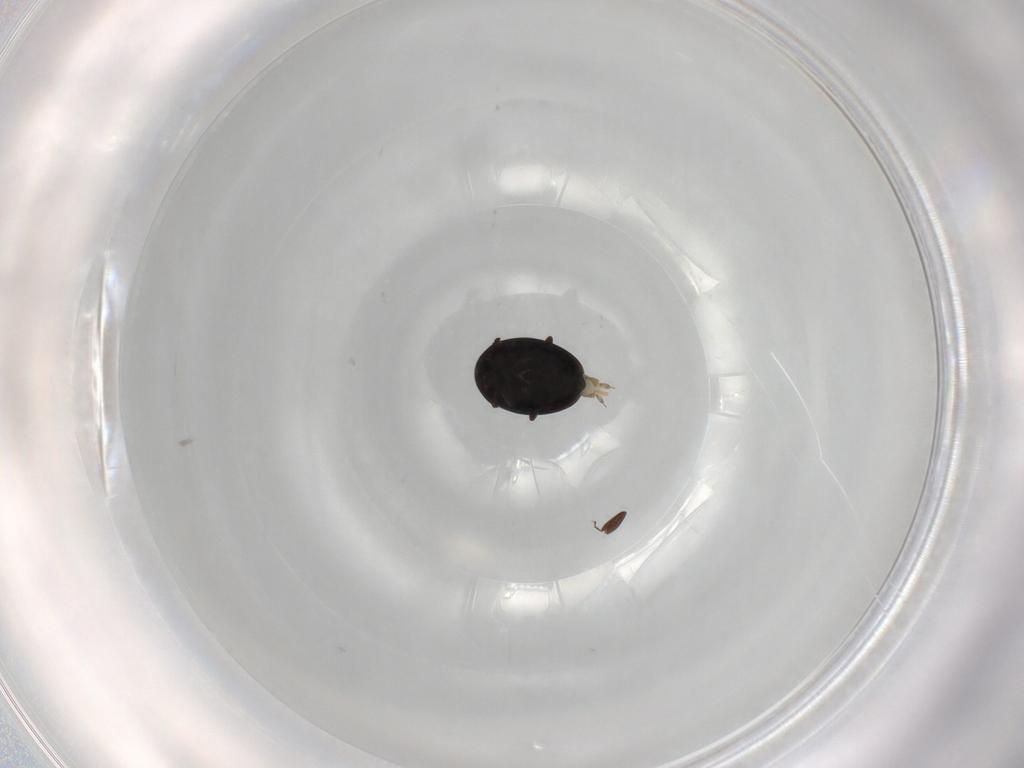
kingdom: Animalia
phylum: Arthropoda
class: Insecta
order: Coleoptera
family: Corylophidae
